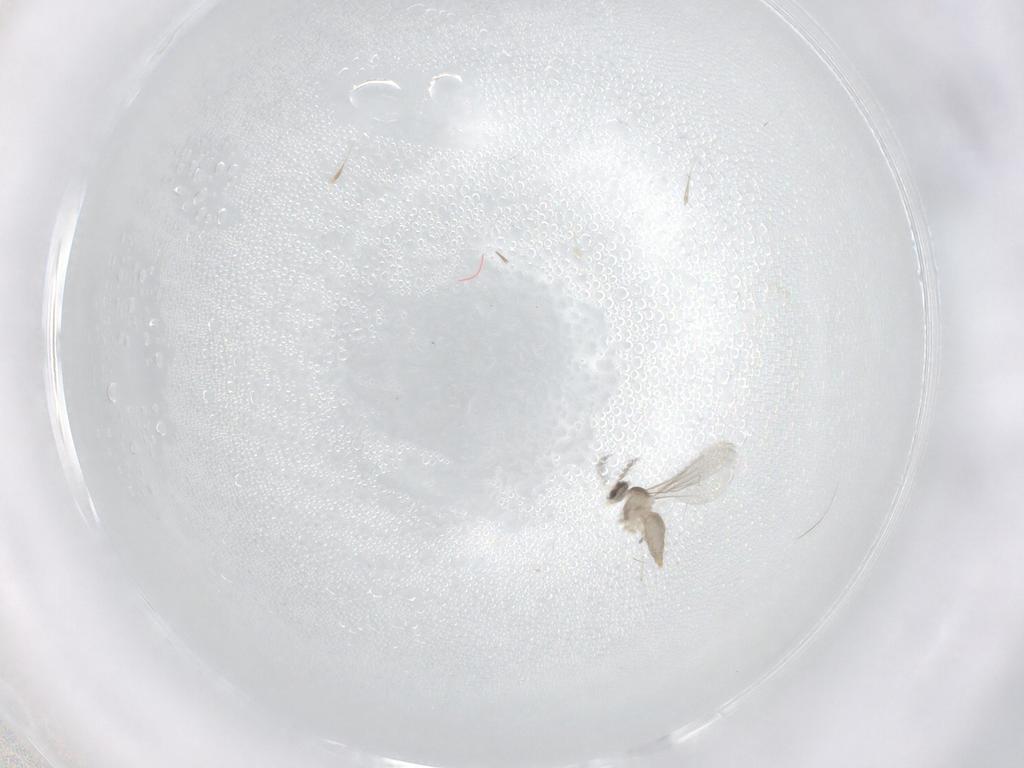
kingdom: Animalia
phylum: Arthropoda
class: Insecta
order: Diptera
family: Cecidomyiidae
